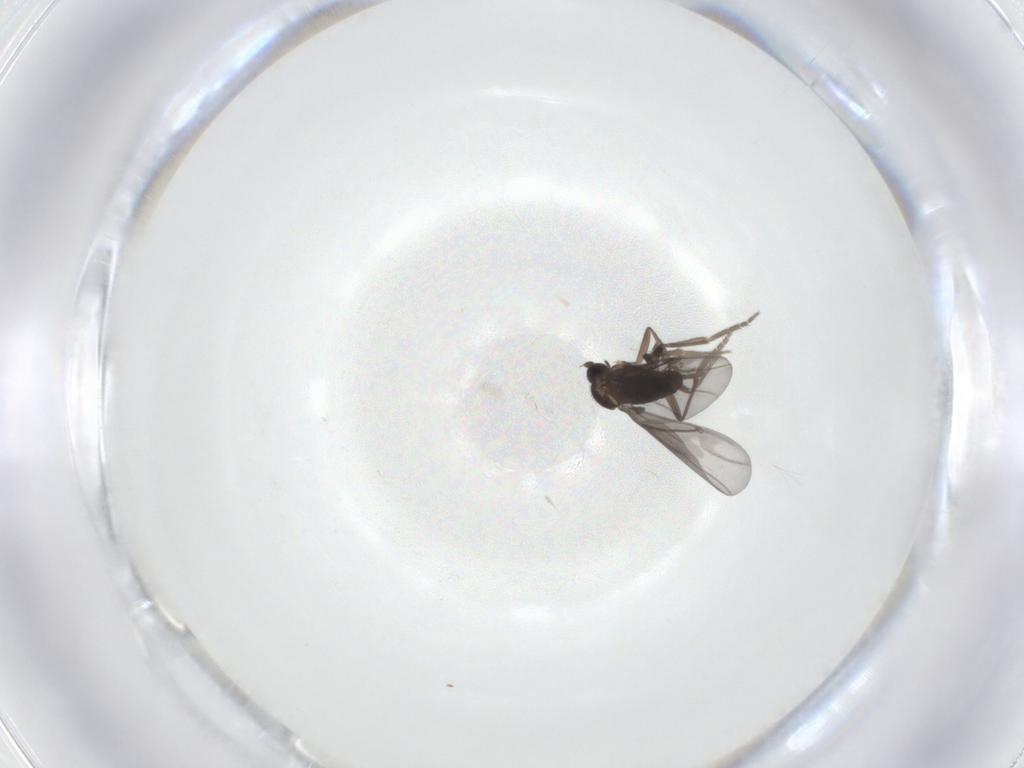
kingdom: Animalia
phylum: Arthropoda
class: Insecta
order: Diptera
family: Phoridae
